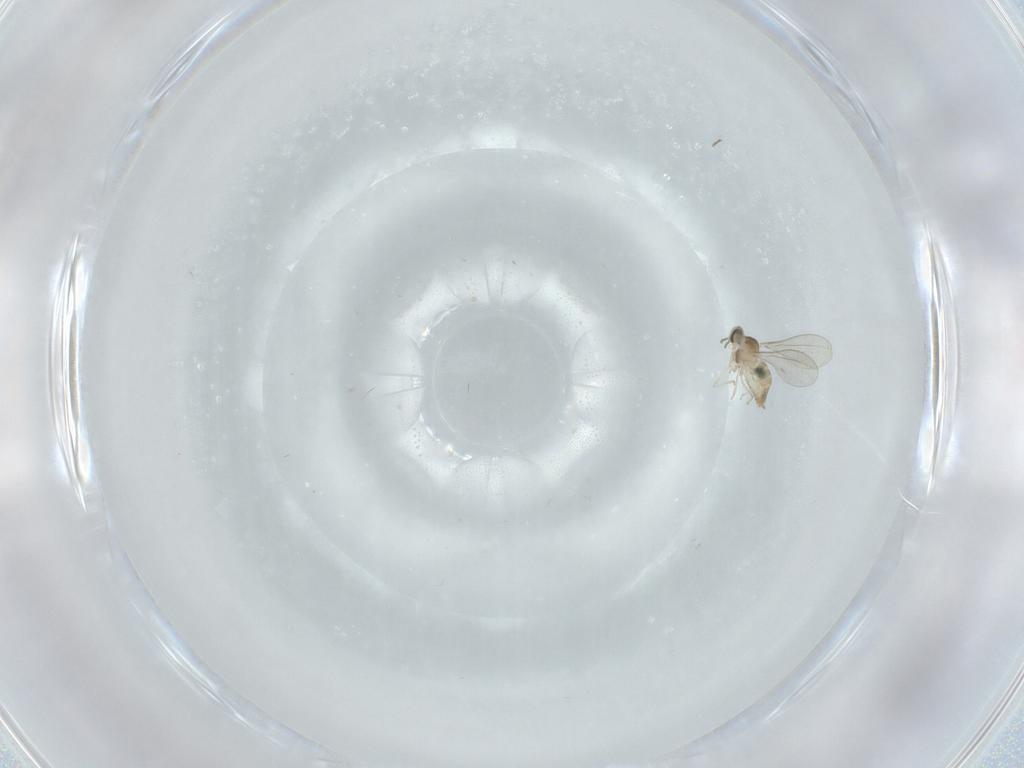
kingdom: Animalia
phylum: Arthropoda
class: Insecta
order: Diptera
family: Cecidomyiidae
